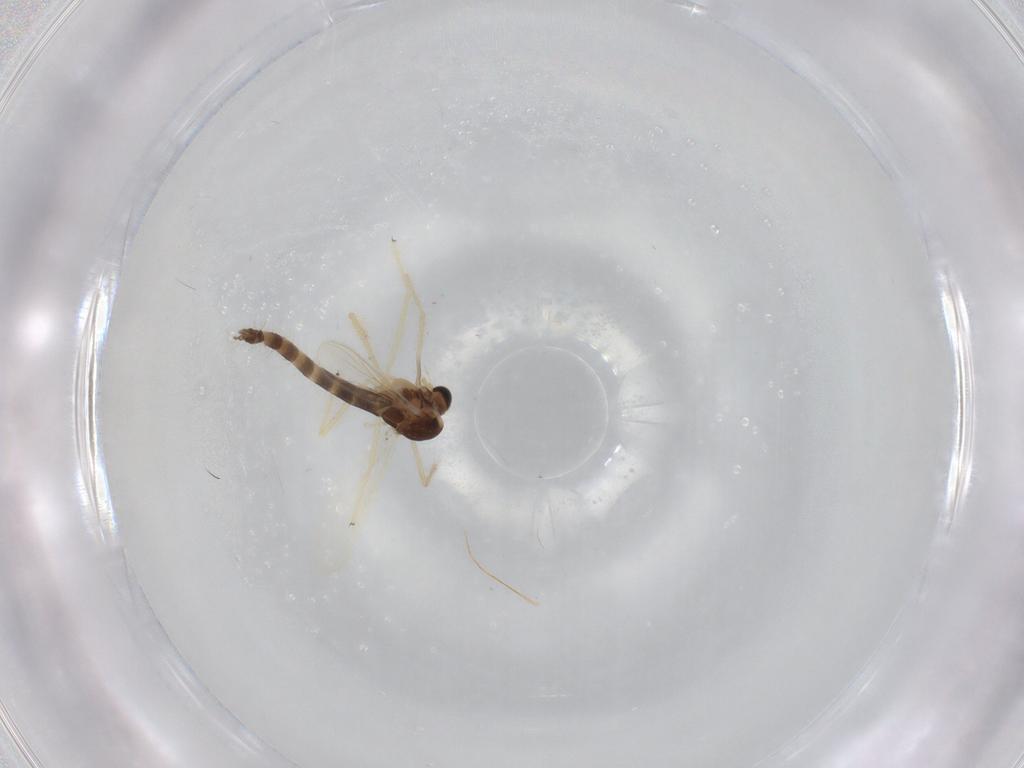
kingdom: Animalia
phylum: Arthropoda
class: Insecta
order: Diptera
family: Chironomidae
